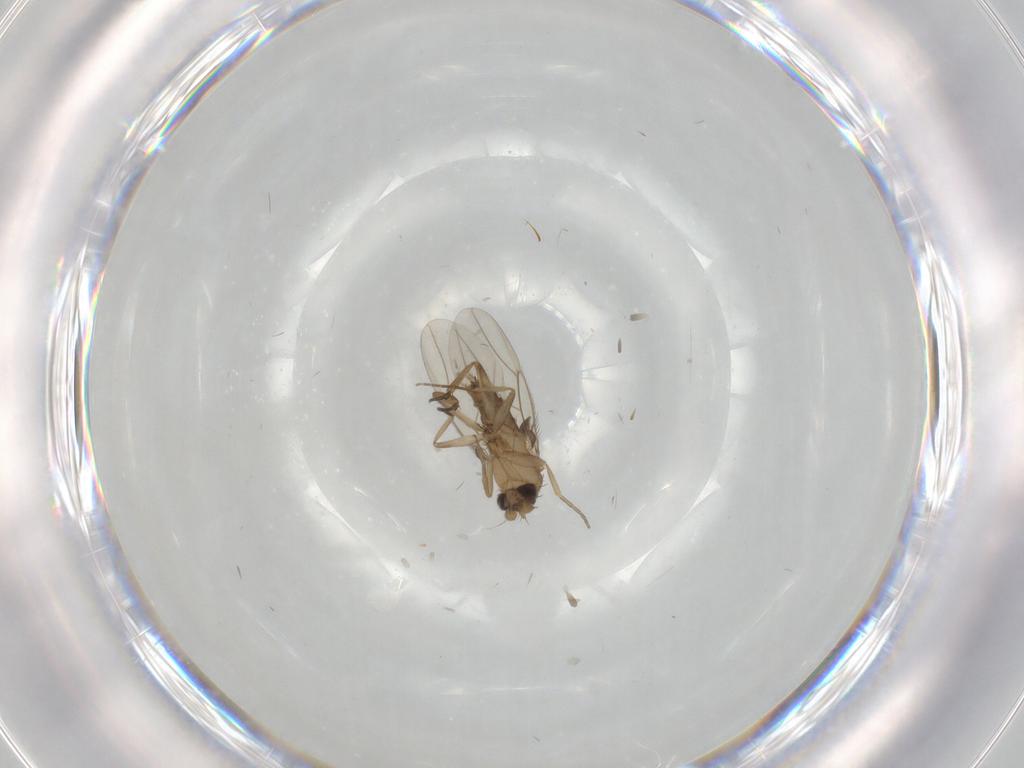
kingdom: Animalia
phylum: Arthropoda
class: Insecta
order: Diptera
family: Phoridae
